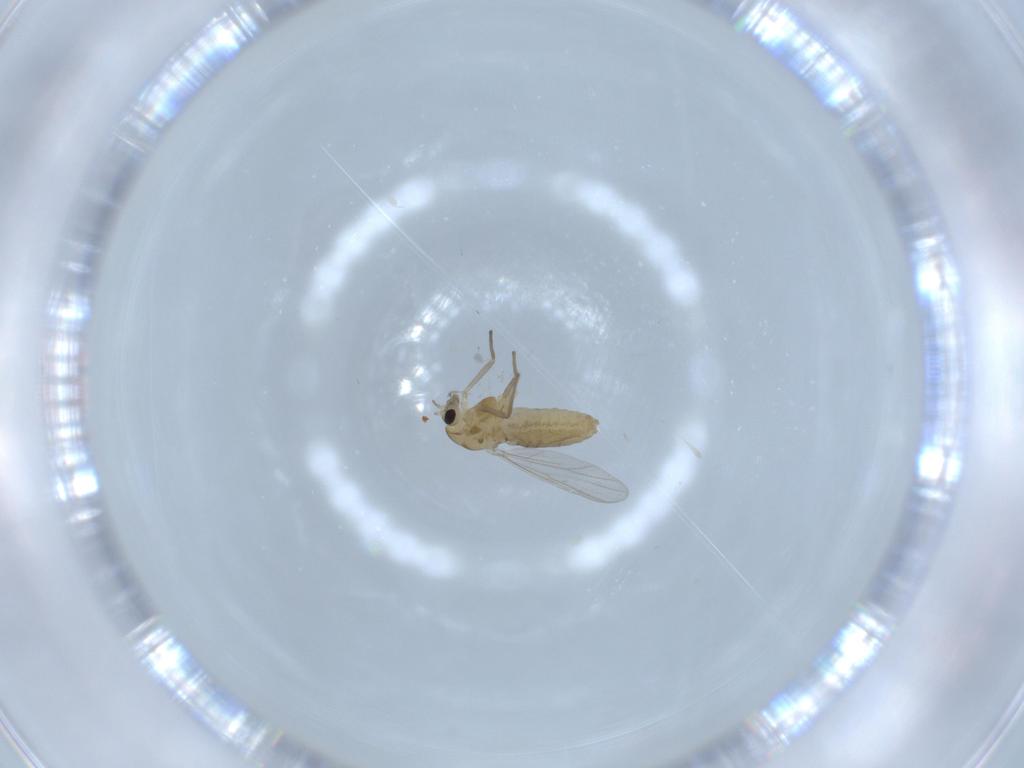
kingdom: Animalia
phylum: Arthropoda
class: Insecta
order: Diptera
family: Chironomidae
